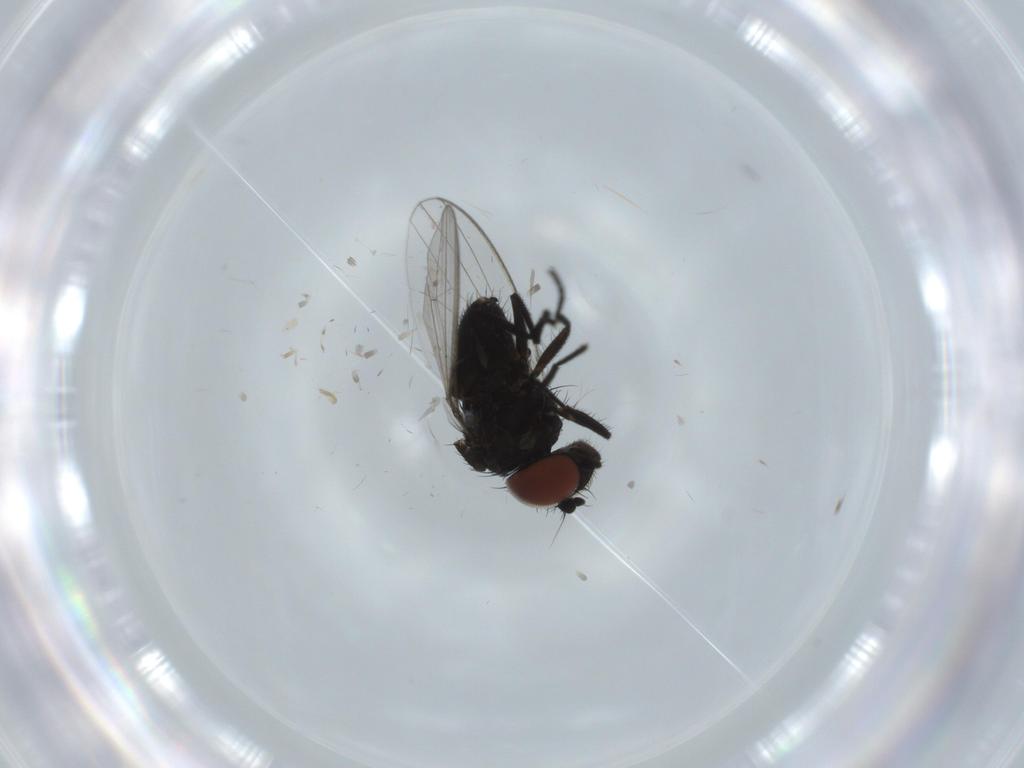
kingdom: Animalia
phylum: Arthropoda
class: Insecta
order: Diptera
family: Milichiidae
